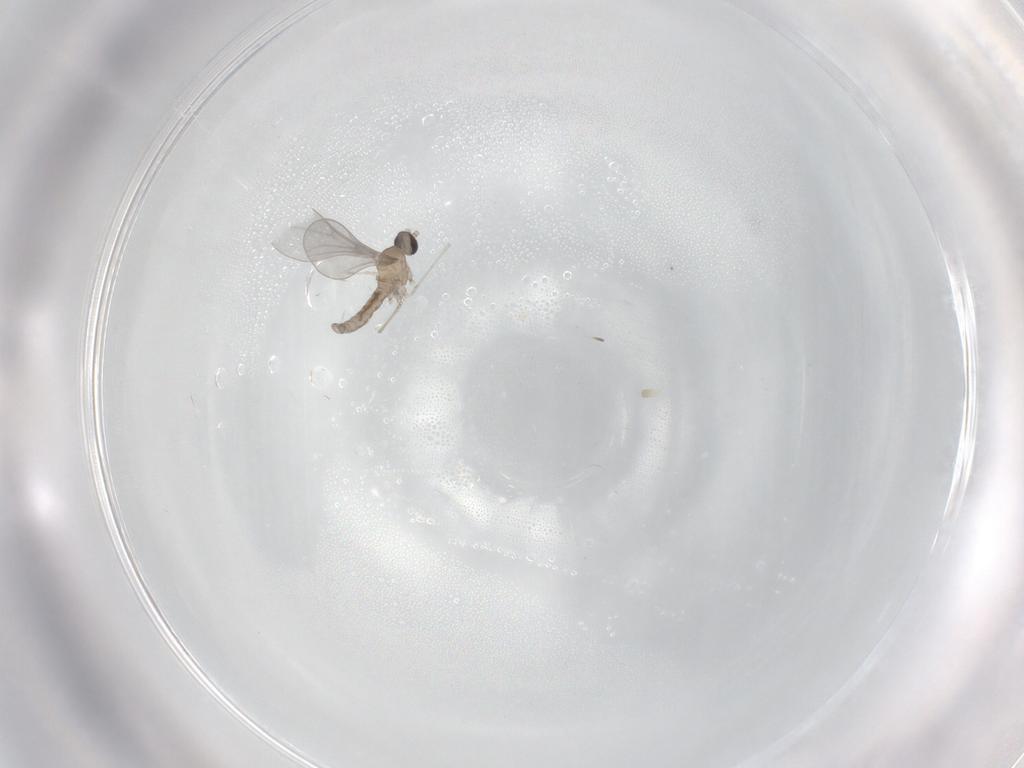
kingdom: Animalia
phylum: Arthropoda
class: Insecta
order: Diptera
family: Cecidomyiidae
